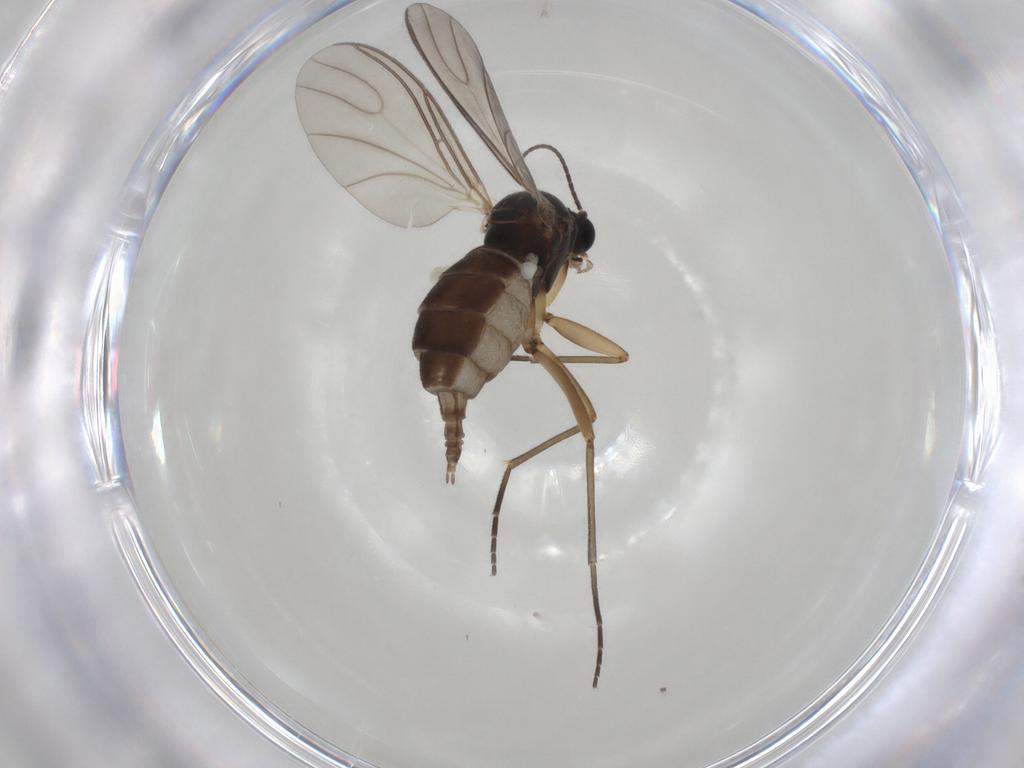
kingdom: Animalia
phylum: Arthropoda
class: Insecta
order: Diptera
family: Sciaridae
